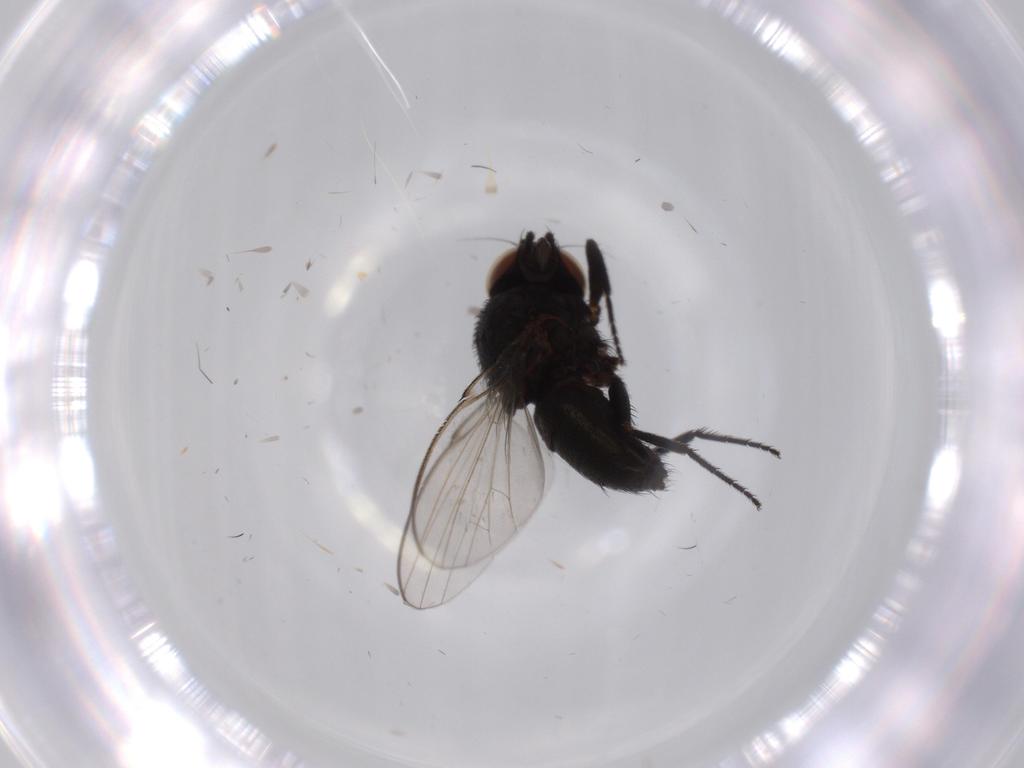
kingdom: Animalia
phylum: Arthropoda
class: Insecta
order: Diptera
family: Milichiidae
